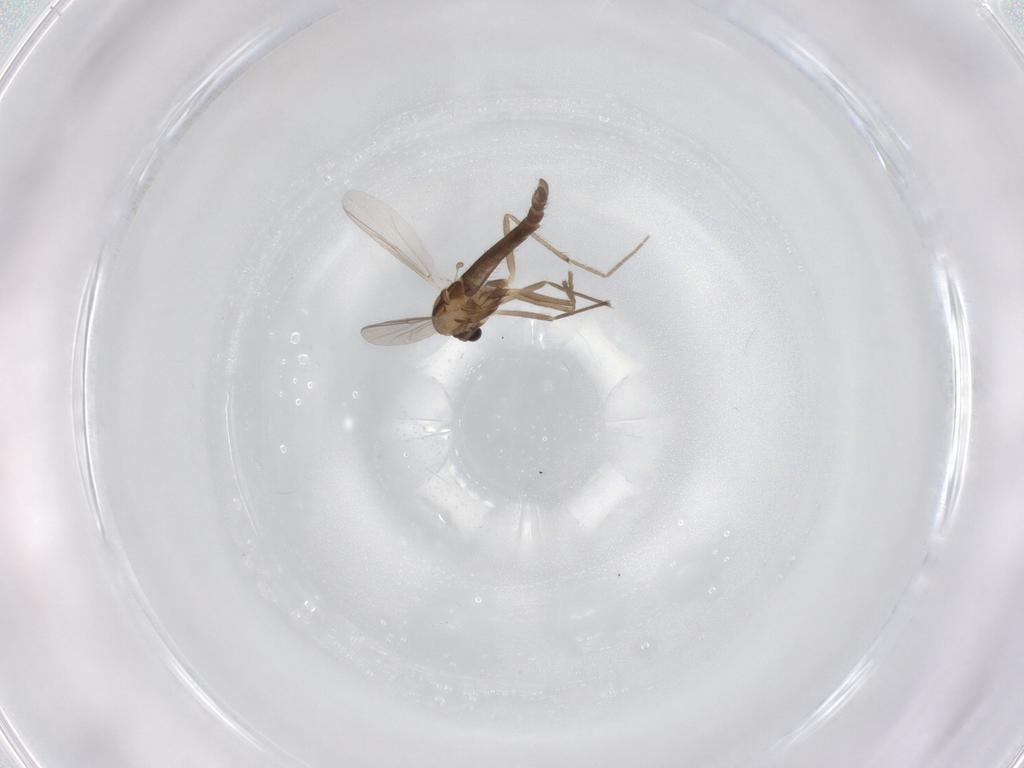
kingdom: Animalia
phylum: Arthropoda
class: Insecta
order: Diptera
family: Chironomidae
